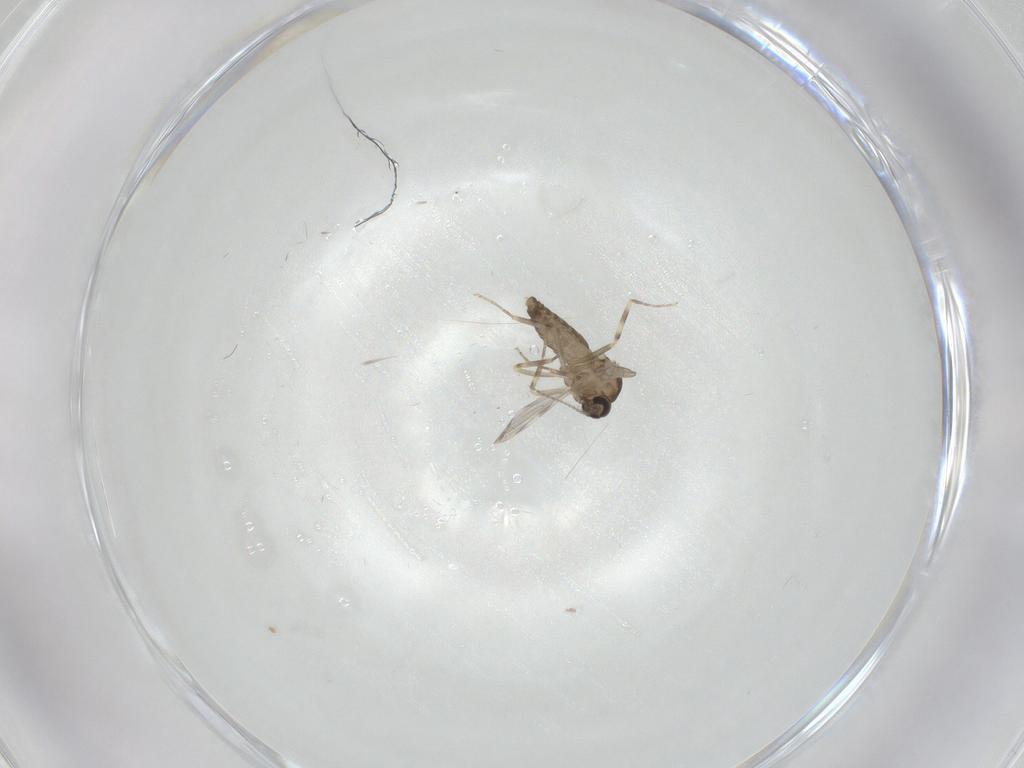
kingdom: Animalia
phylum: Arthropoda
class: Insecta
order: Diptera
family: Ceratopogonidae
